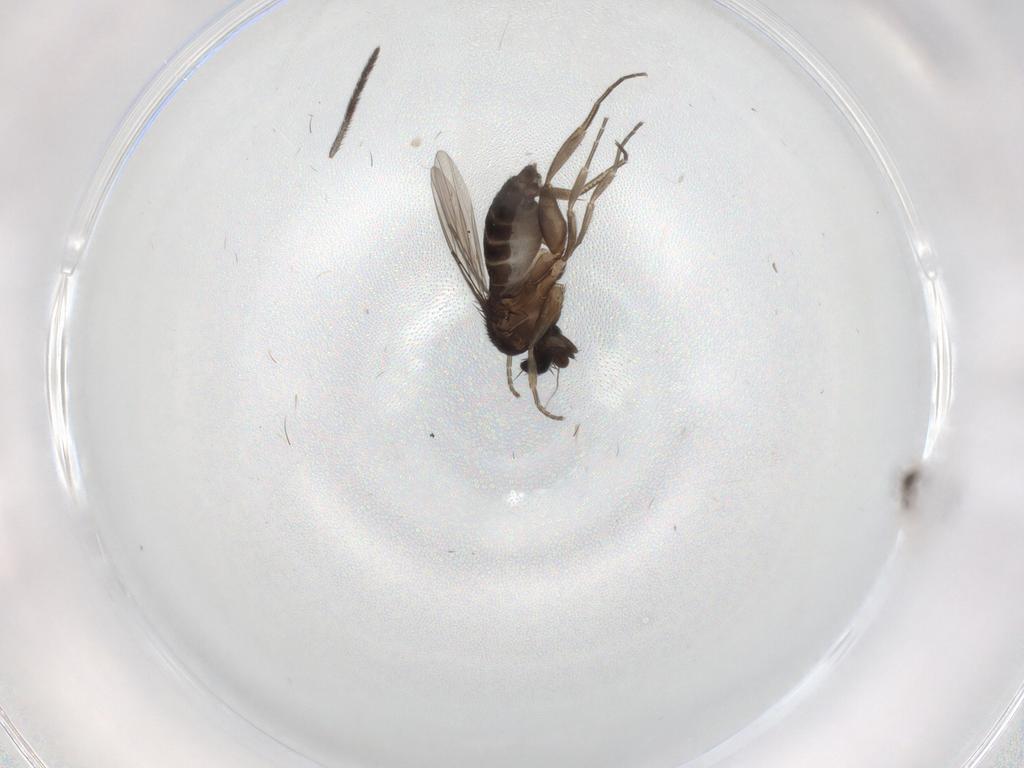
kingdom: Animalia
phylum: Arthropoda
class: Insecta
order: Diptera
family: Phoridae
